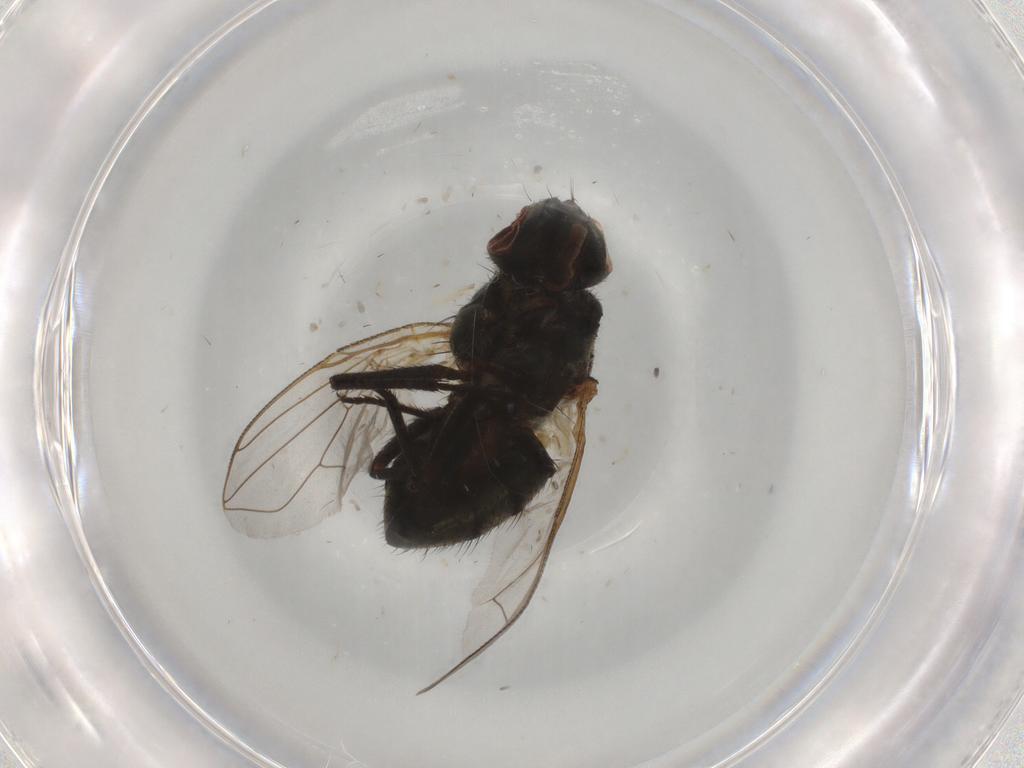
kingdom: Animalia
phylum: Arthropoda
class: Insecta
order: Diptera
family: Muscidae
